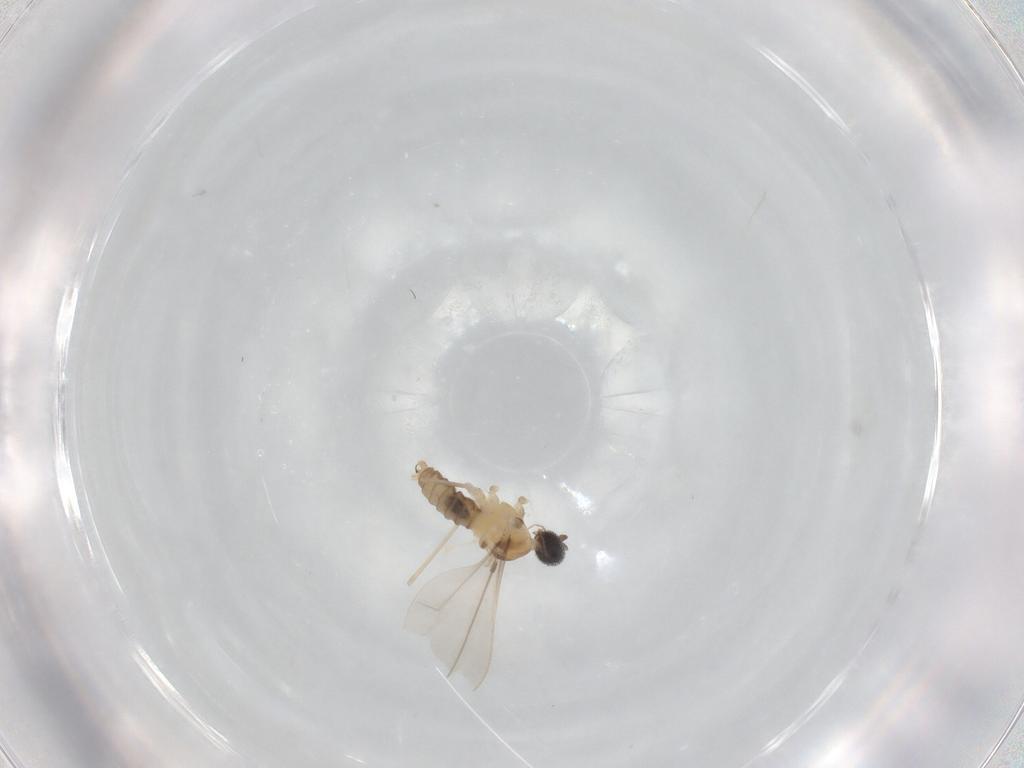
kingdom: Animalia
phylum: Arthropoda
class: Insecta
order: Diptera
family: Cecidomyiidae
